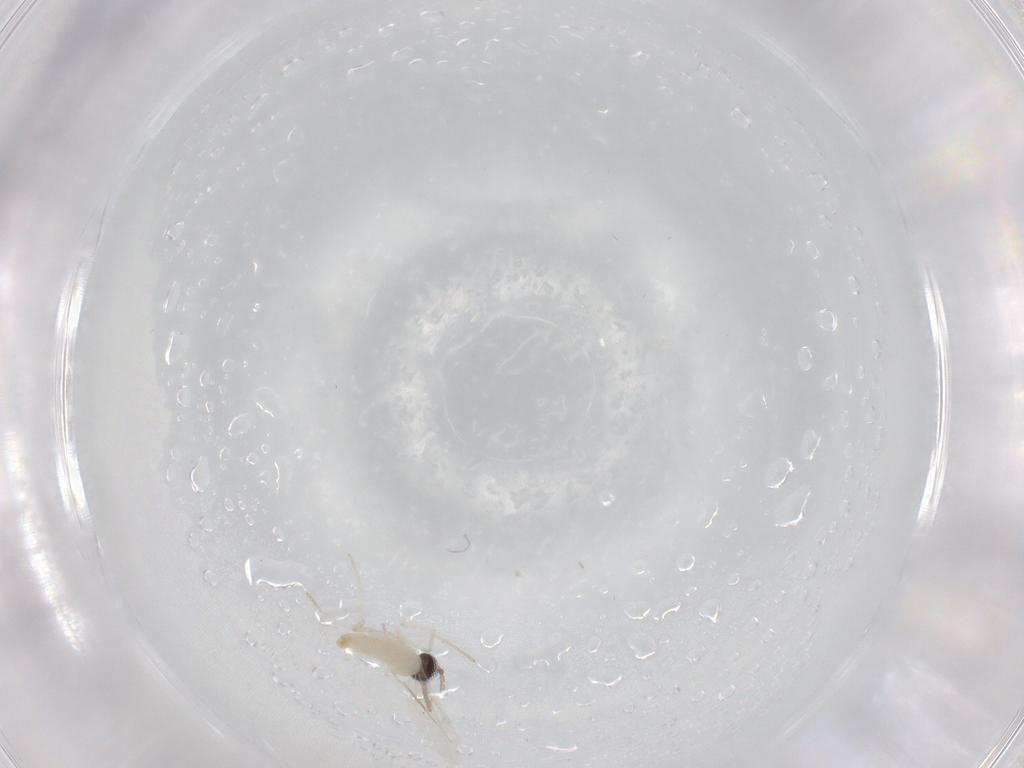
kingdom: Animalia
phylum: Arthropoda
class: Insecta
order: Diptera
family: Cecidomyiidae
